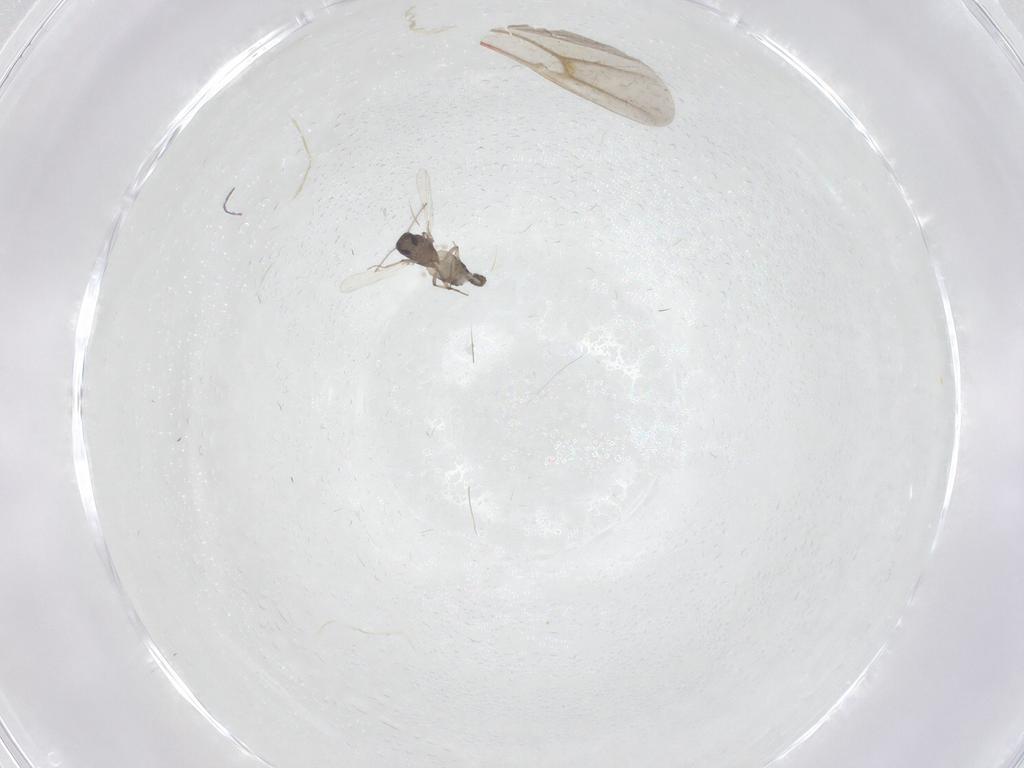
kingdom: Animalia
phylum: Arthropoda
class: Insecta
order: Diptera
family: Ceratopogonidae
